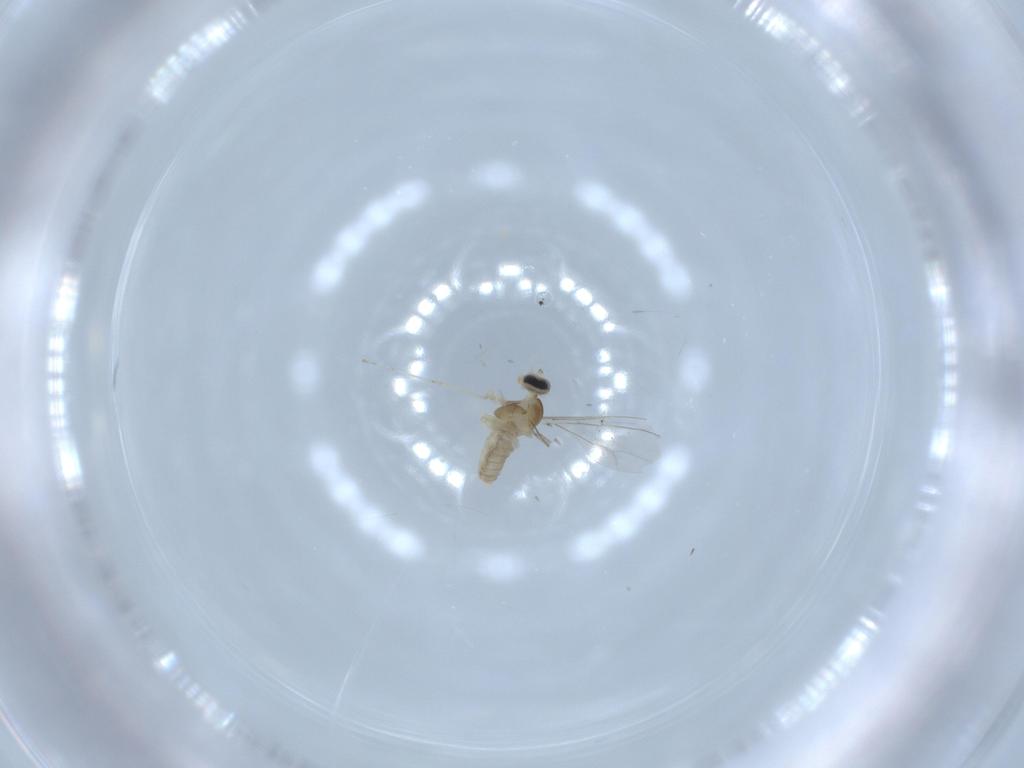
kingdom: Animalia
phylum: Arthropoda
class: Insecta
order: Diptera
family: Cecidomyiidae
